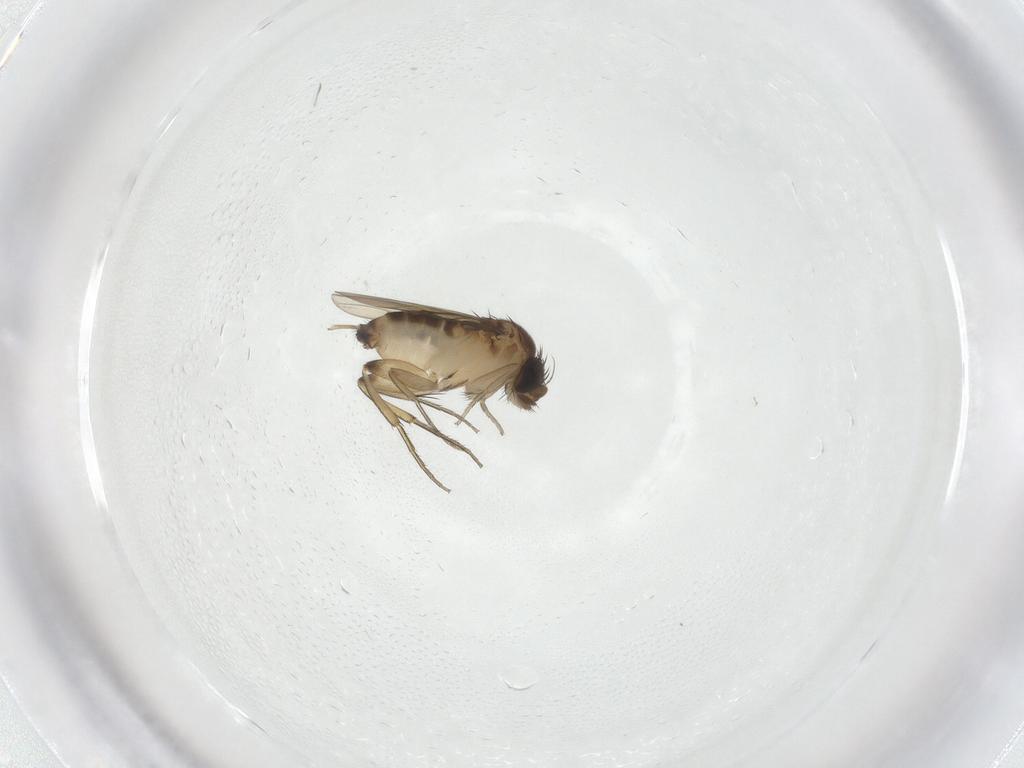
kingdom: Animalia
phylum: Arthropoda
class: Insecta
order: Diptera
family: Phoridae
